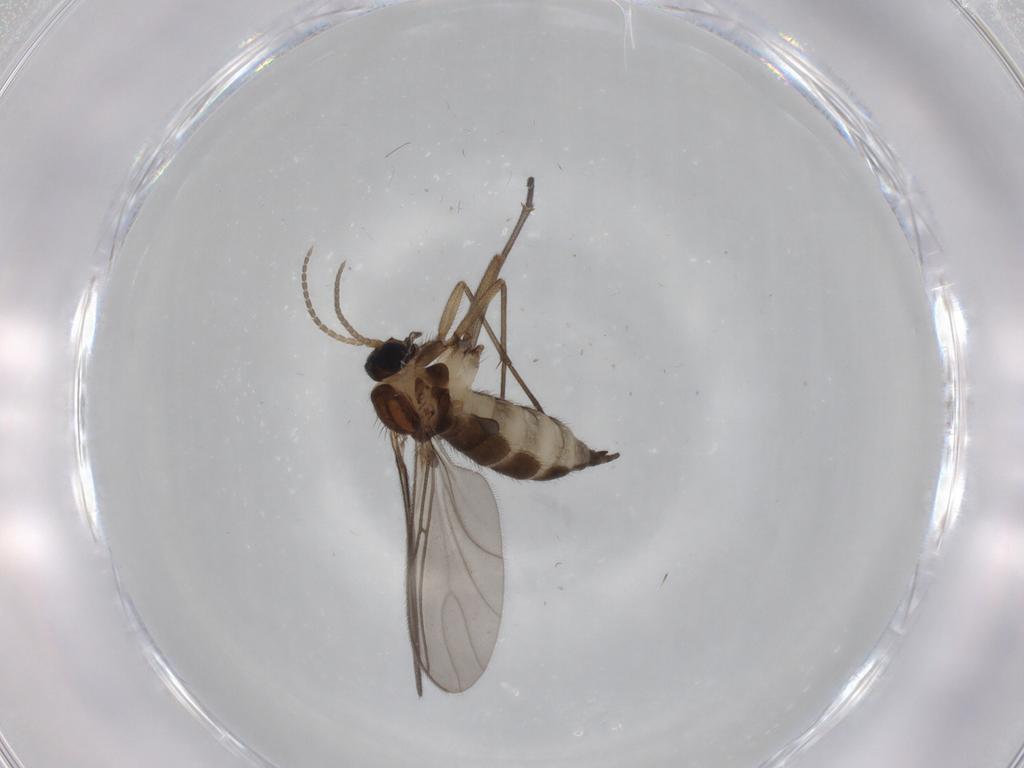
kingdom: Animalia
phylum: Arthropoda
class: Insecta
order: Diptera
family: Sciaridae
